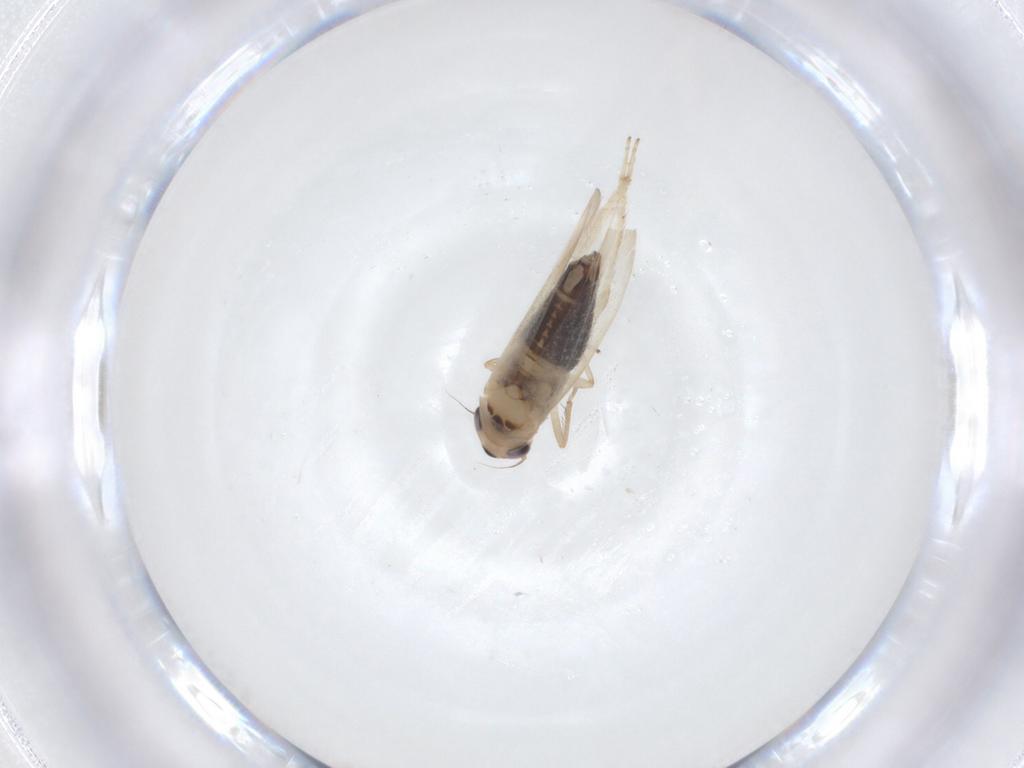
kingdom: Animalia
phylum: Arthropoda
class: Insecta
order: Hemiptera
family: Cicadellidae
